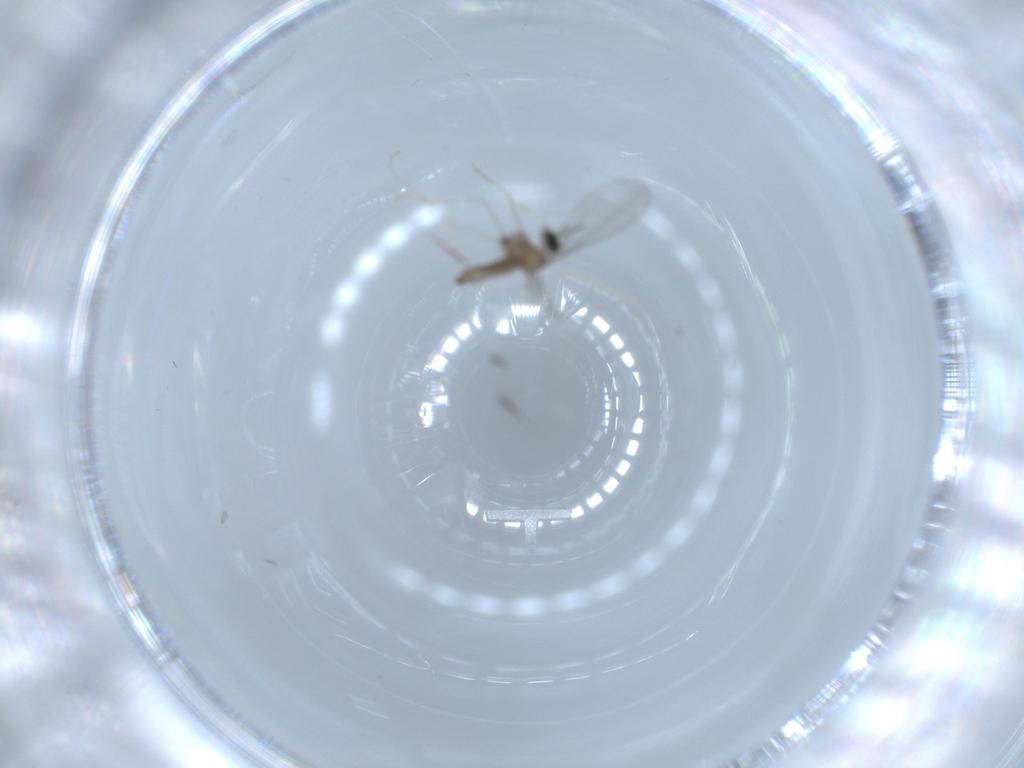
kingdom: Animalia
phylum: Arthropoda
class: Insecta
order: Diptera
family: Cecidomyiidae
